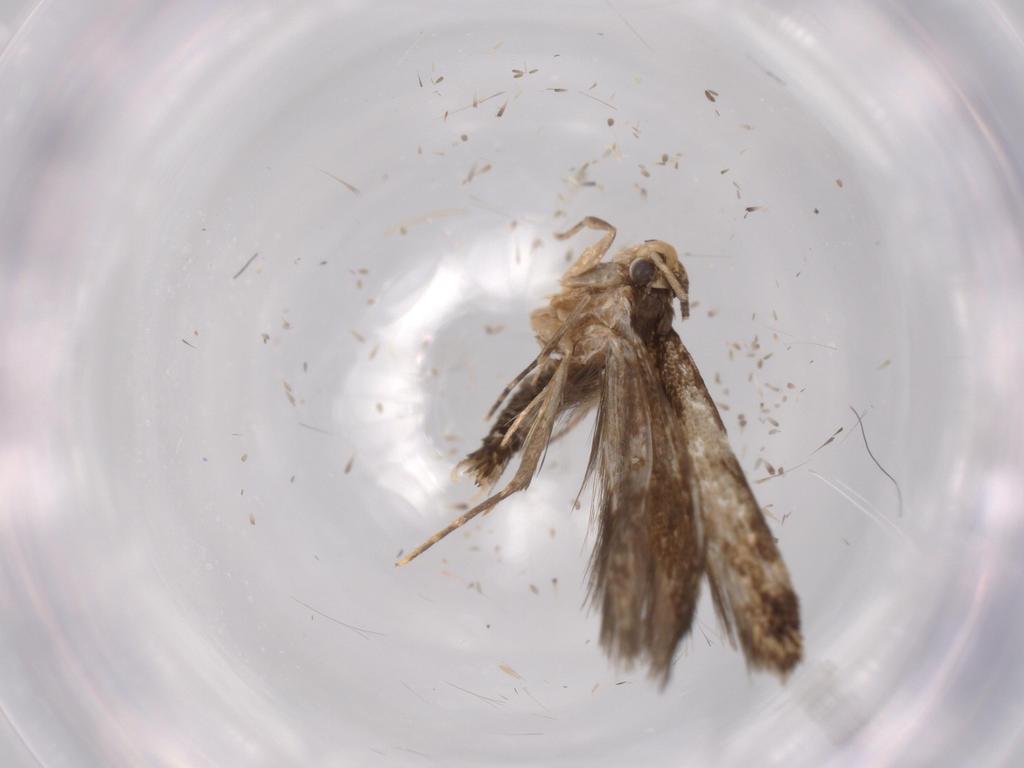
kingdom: Animalia
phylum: Arthropoda
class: Insecta
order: Lepidoptera
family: Tineidae
